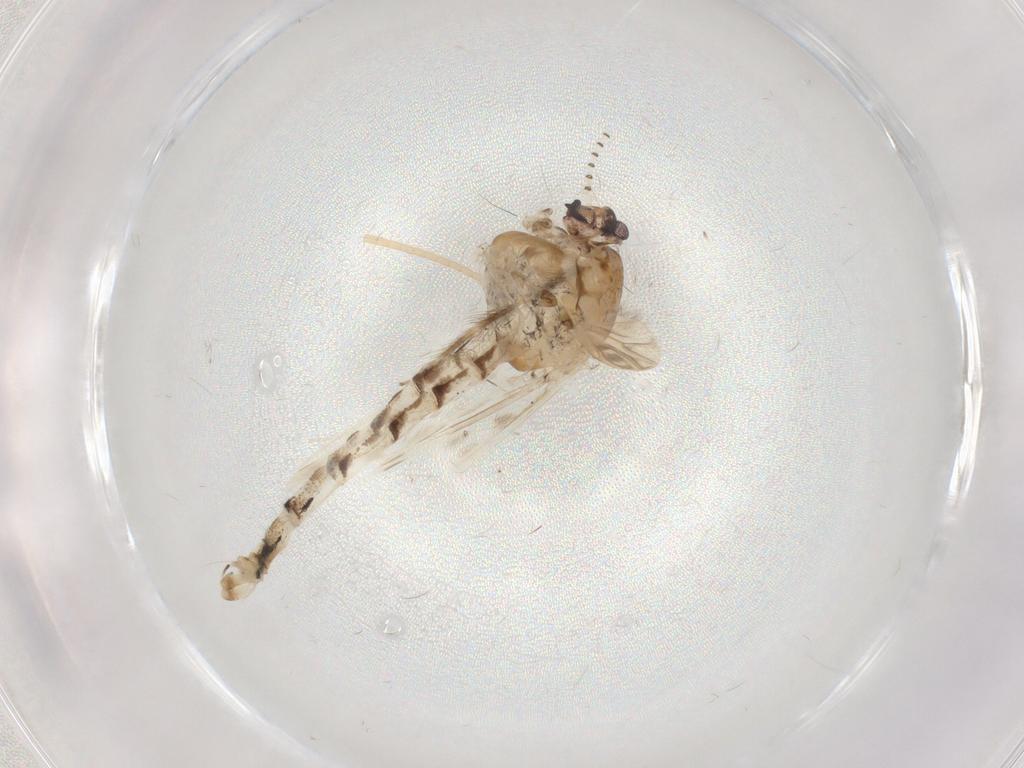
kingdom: Animalia
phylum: Arthropoda
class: Insecta
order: Diptera
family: Chaoboridae
